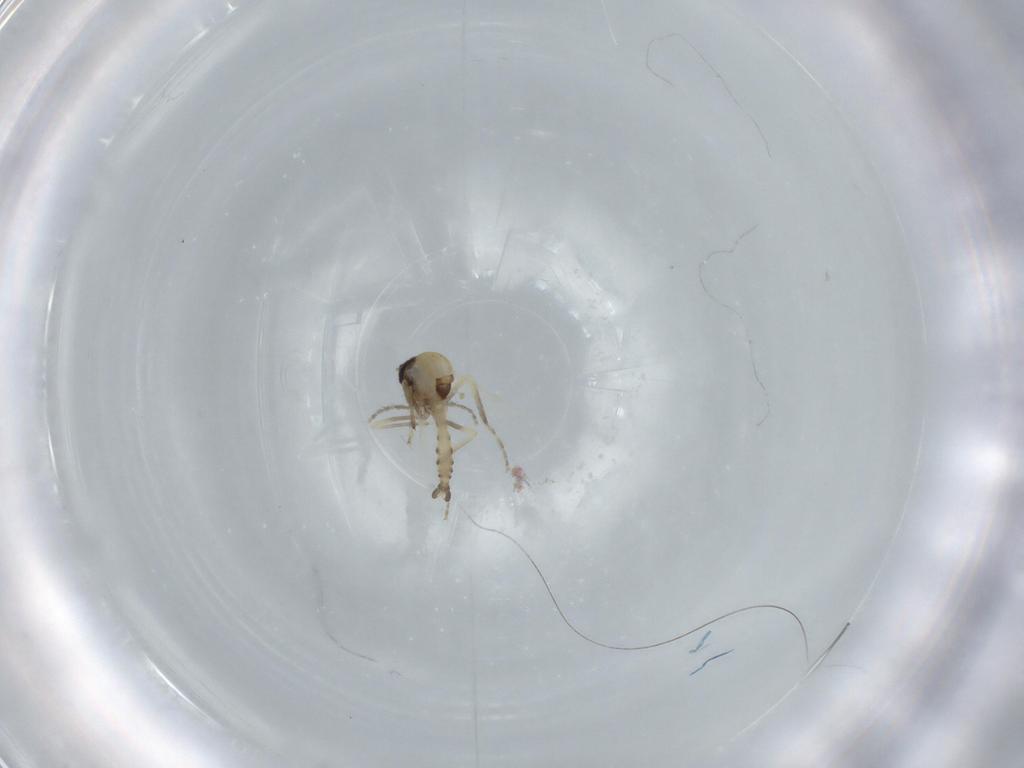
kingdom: Animalia
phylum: Arthropoda
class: Insecta
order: Diptera
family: Ceratopogonidae
